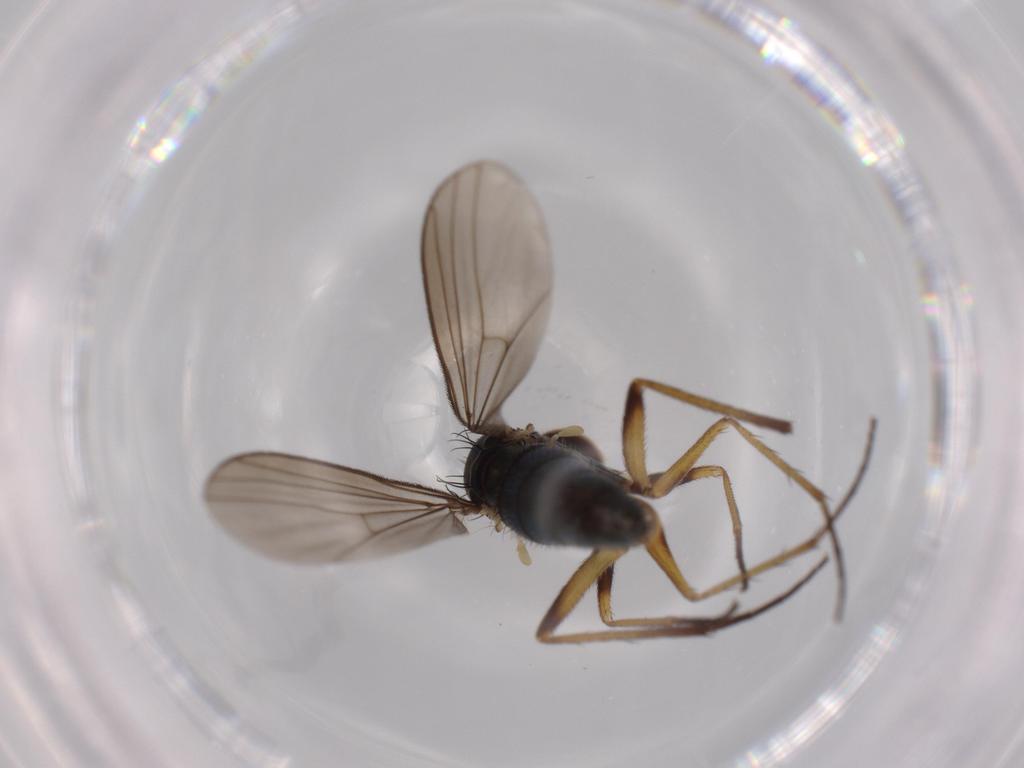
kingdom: Animalia
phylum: Arthropoda
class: Insecta
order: Diptera
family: Dolichopodidae
